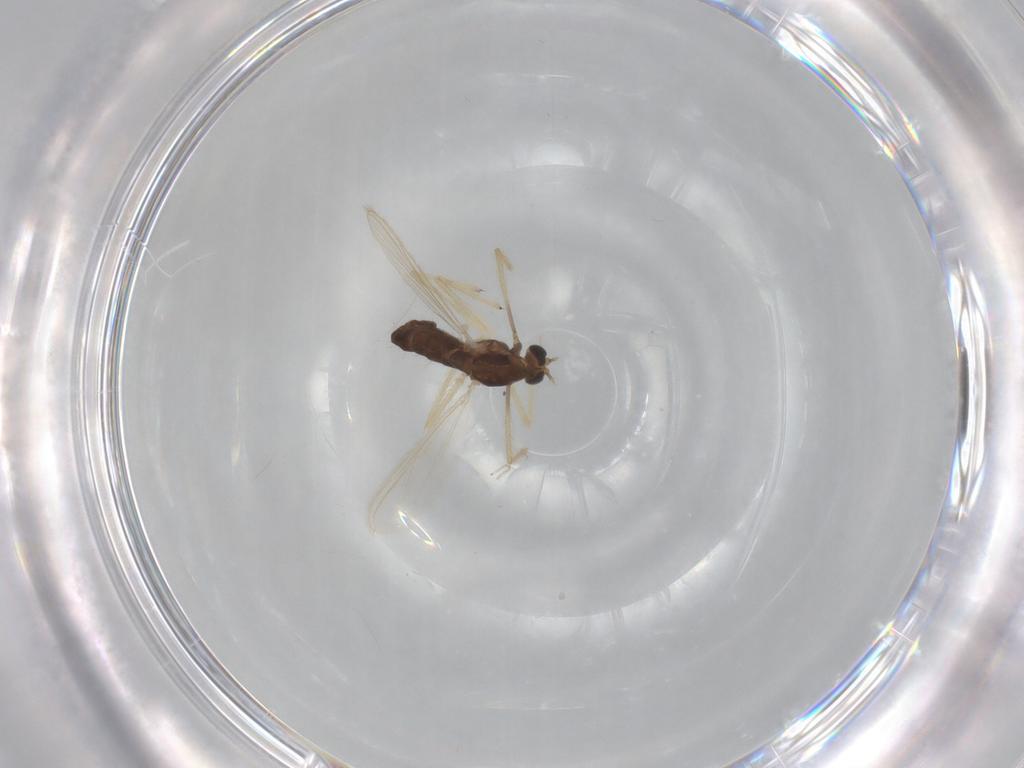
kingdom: Animalia
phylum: Arthropoda
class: Insecta
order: Diptera
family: Chironomidae
